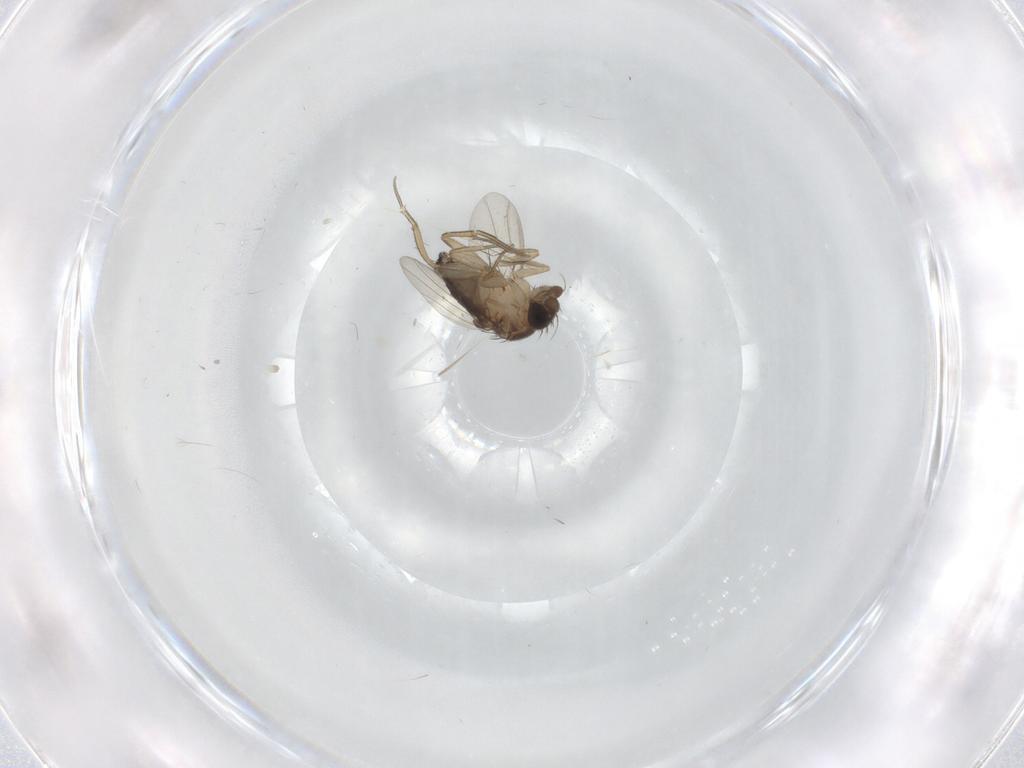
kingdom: Animalia
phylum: Arthropoda
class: Insecta
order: Diptera
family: Phoridae
